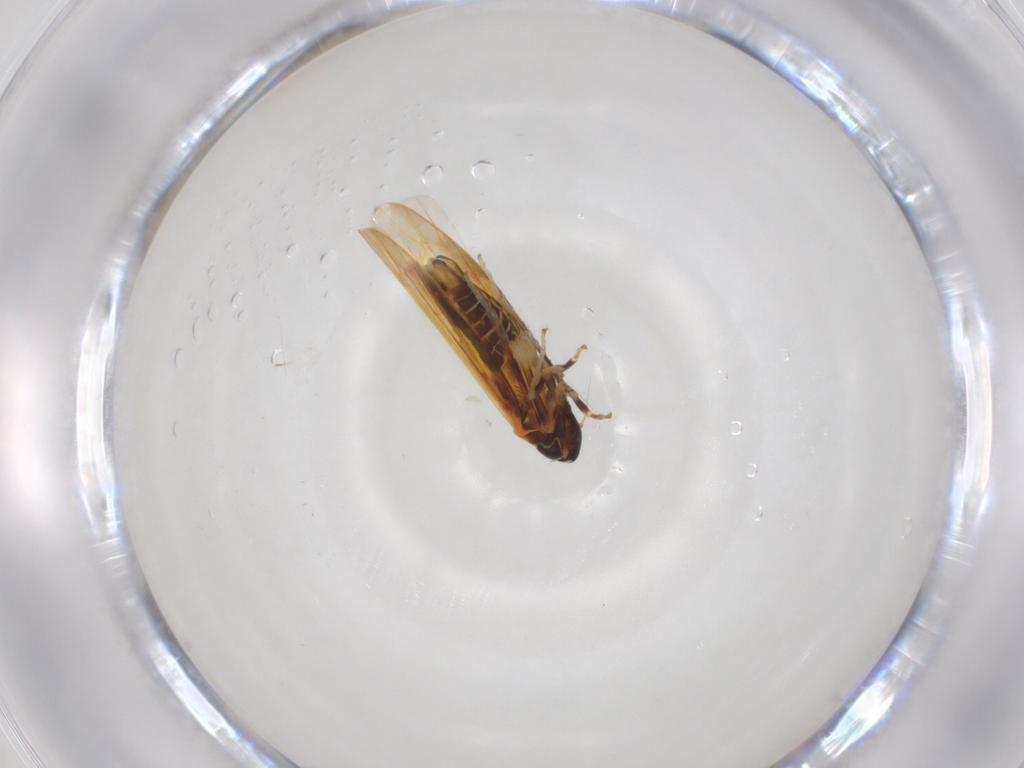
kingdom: Animalia
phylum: Arthropoda
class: Insecta
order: Hemiptera
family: Cicadellidae
